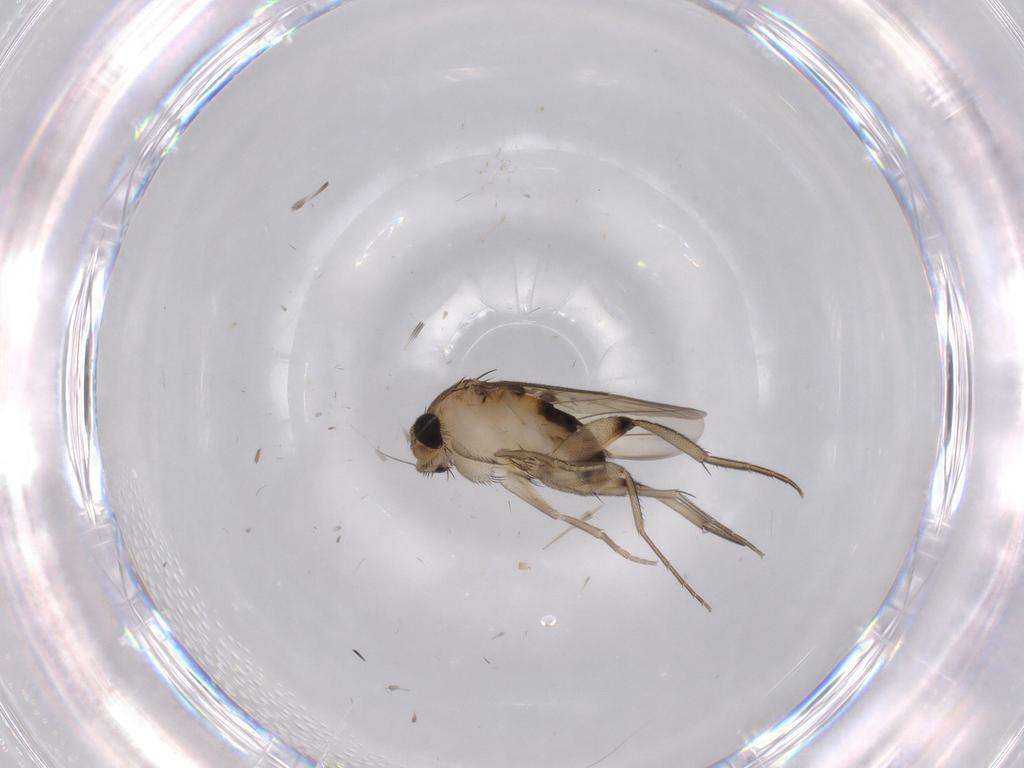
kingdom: Animalia
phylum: Arthropoda
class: Insecta
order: Diptera
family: Phoridae
